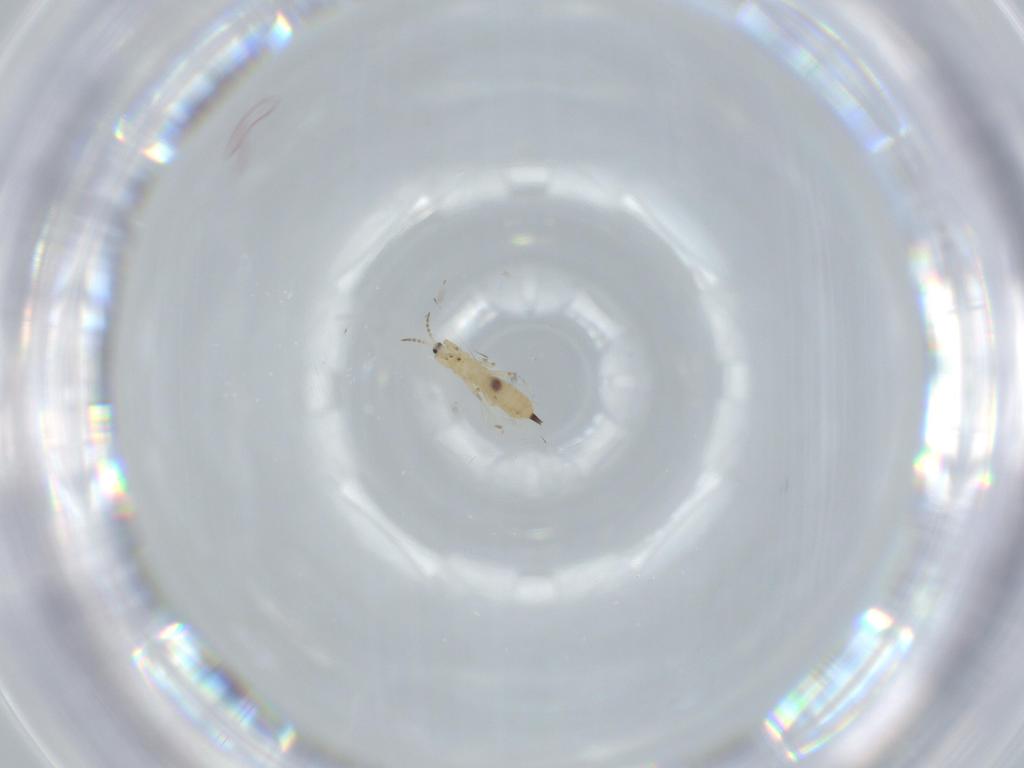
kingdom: Animalia
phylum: Arthropoda
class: Insecta
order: Thysanoptera
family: Phlaeothripidae
